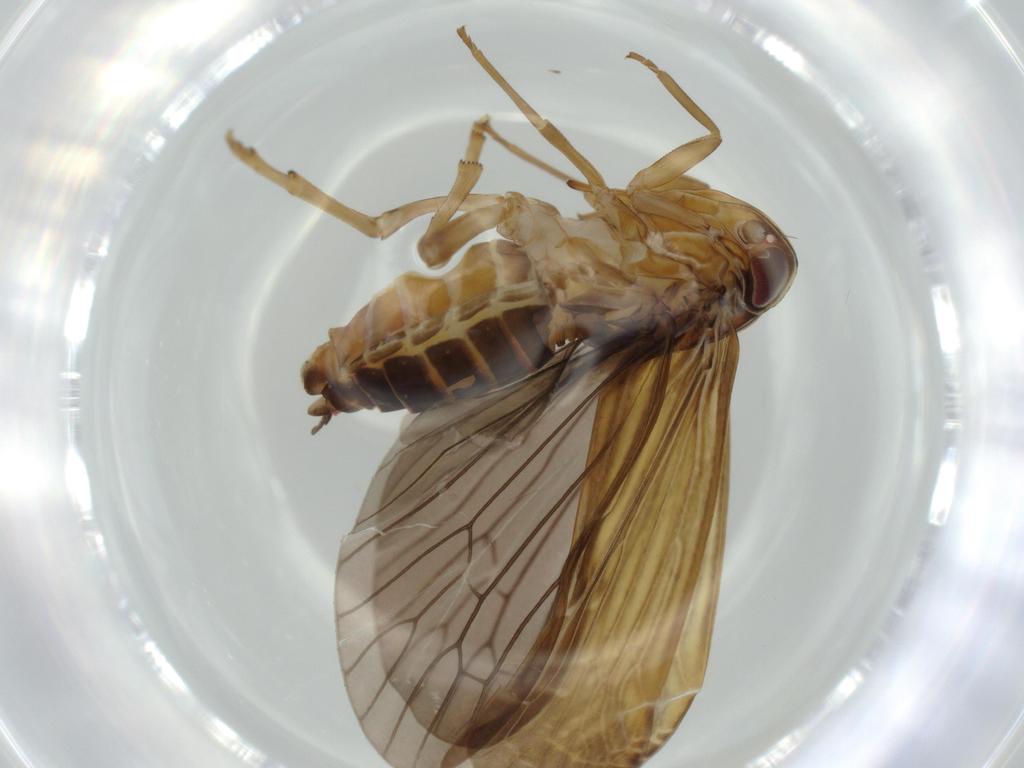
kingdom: Animalia
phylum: Arthropoda
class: Insecta
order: Hemiptera
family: Achilidae
